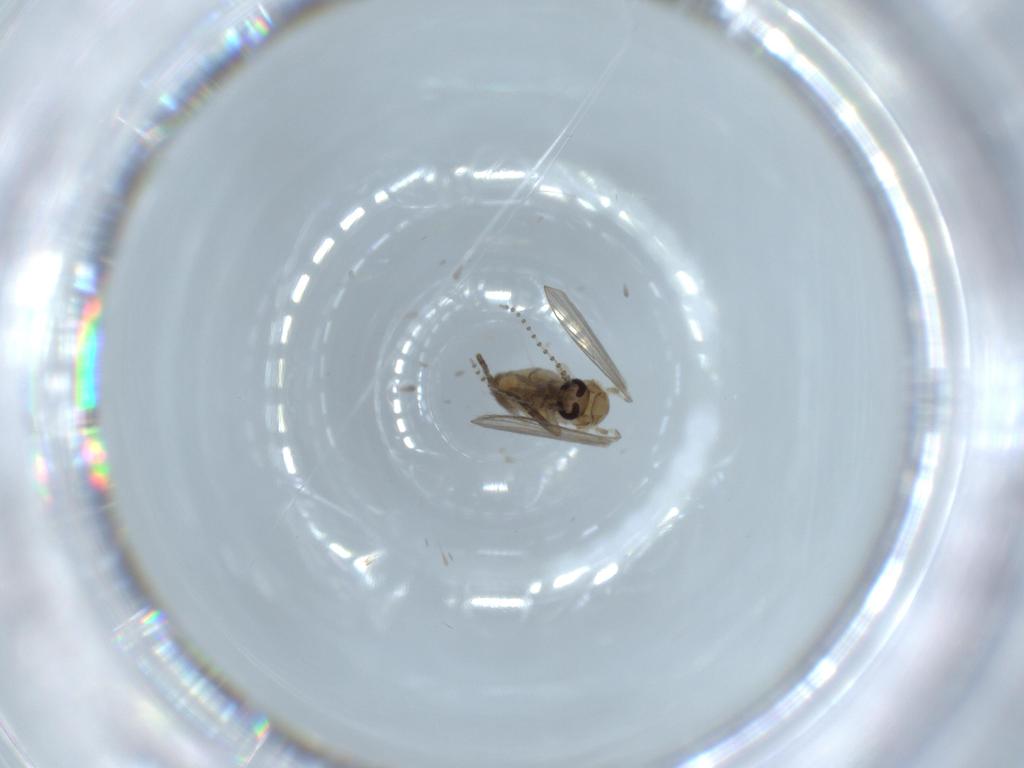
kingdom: Animalia
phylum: Arthropoda
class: Insecta
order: Diptera
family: Psychodidae
